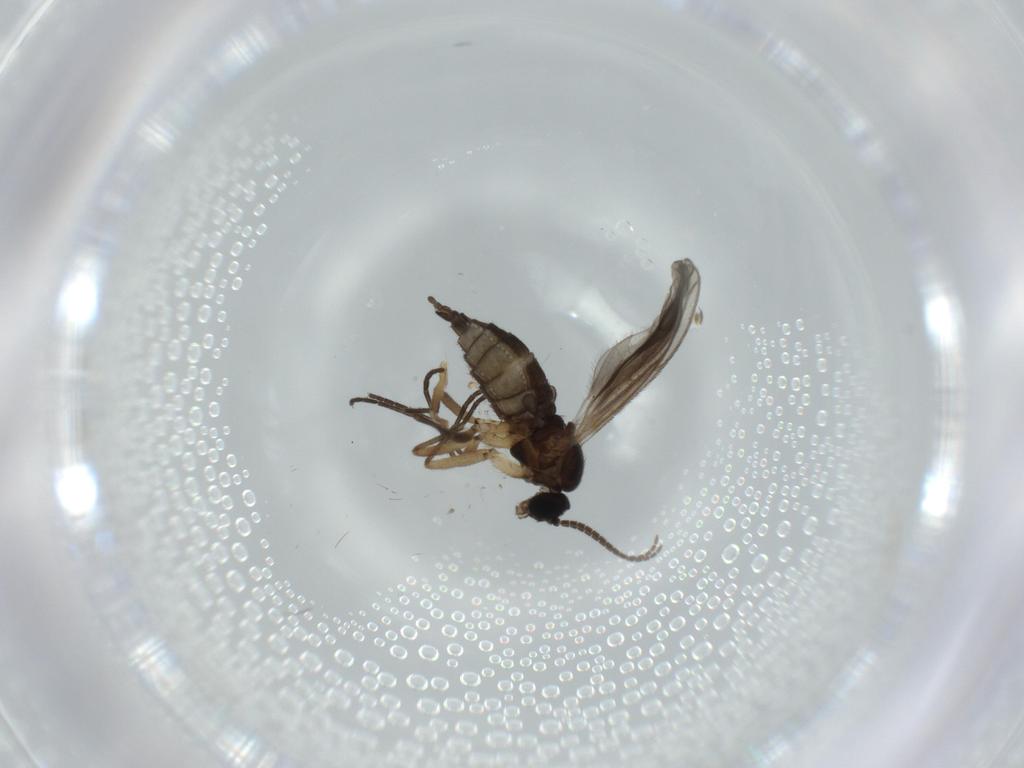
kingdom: Animalia
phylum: Arthropoda
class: Insecta
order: Diptera
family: Sciaridae
